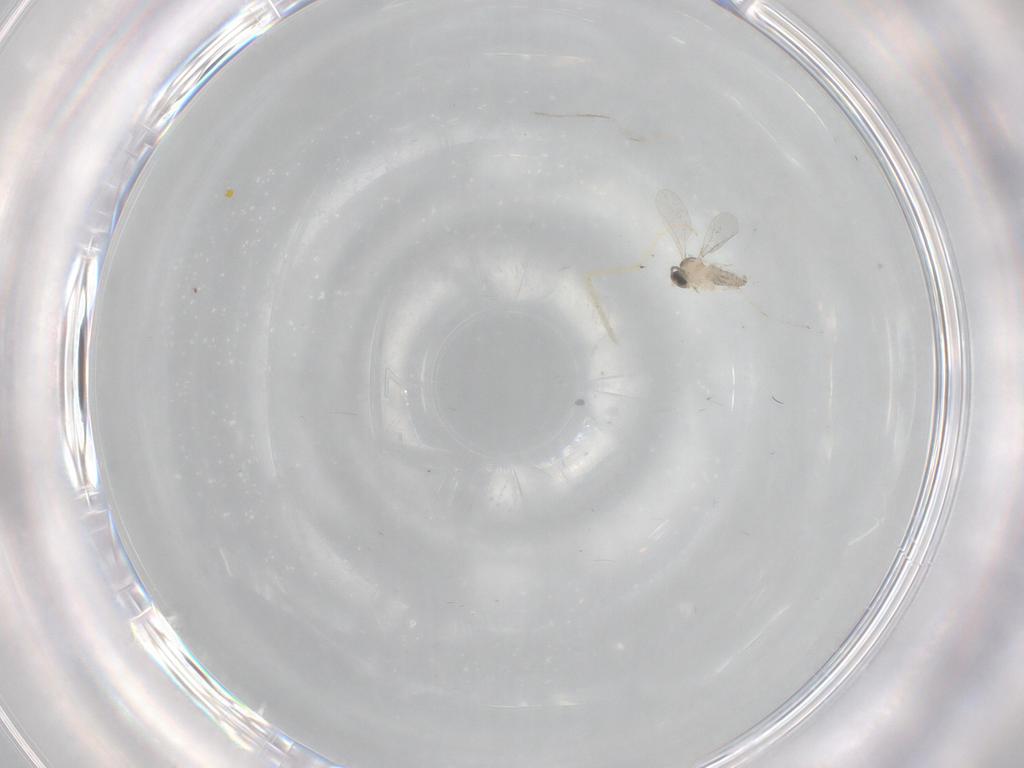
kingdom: Animalia
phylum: Arthropoda
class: Insecta
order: Diptera
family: Cecidomyiidae
